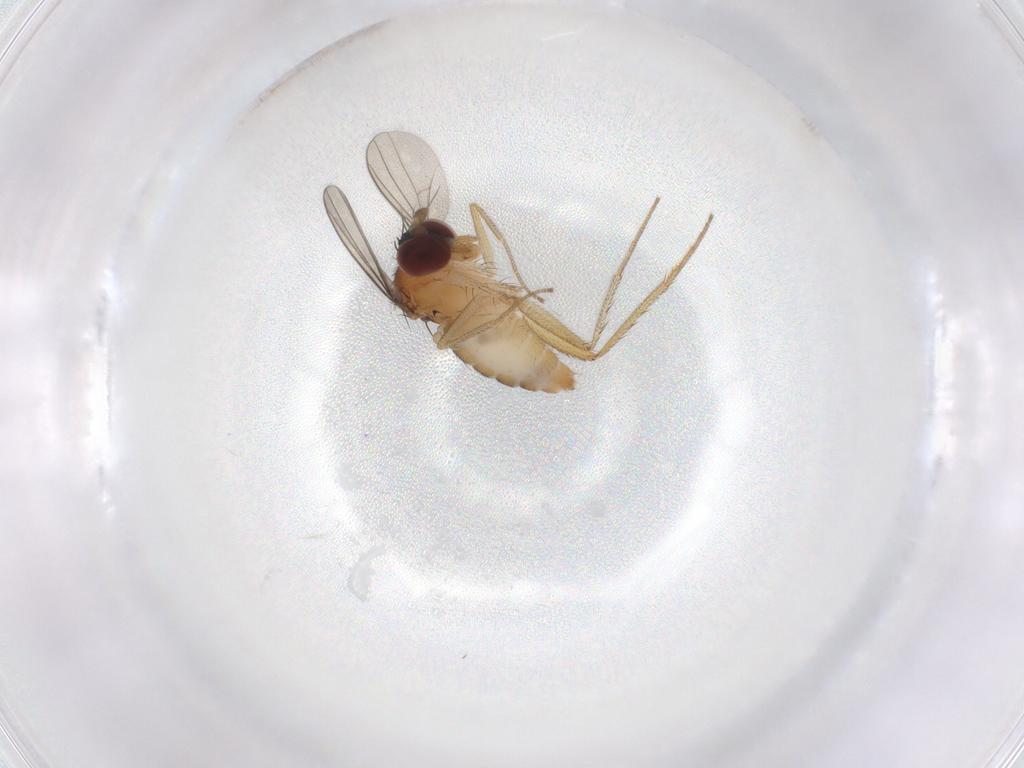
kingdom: Animalia
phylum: Arthropoda
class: Insecta
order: Diptera
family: Dolichopodidae
